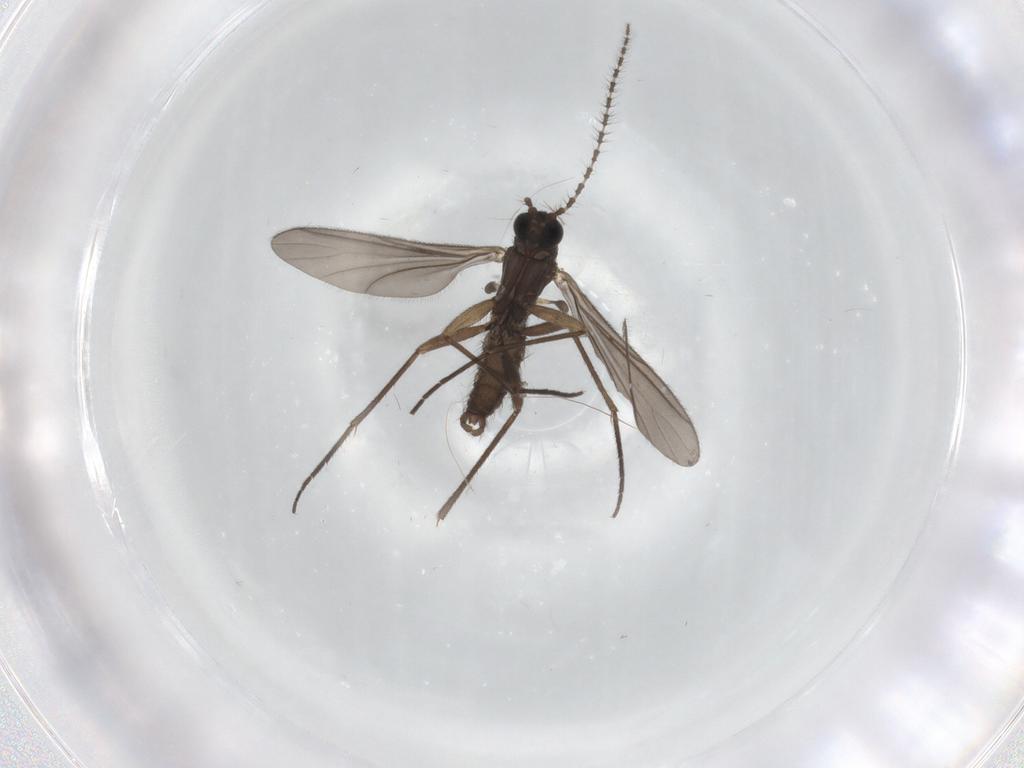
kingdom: Animalia
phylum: Arthropoda
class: Insecta
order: Diptera
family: Sciaridae
